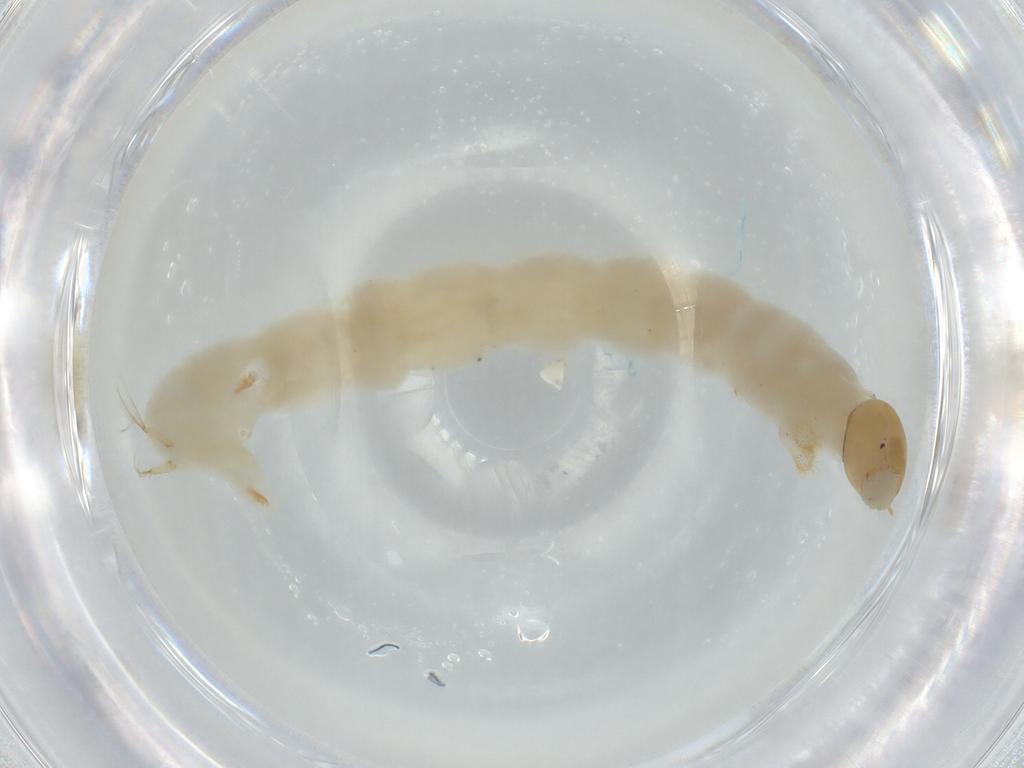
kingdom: Animalia
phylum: Arthropoda
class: Insecta
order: Diptera
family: Chironomidae
